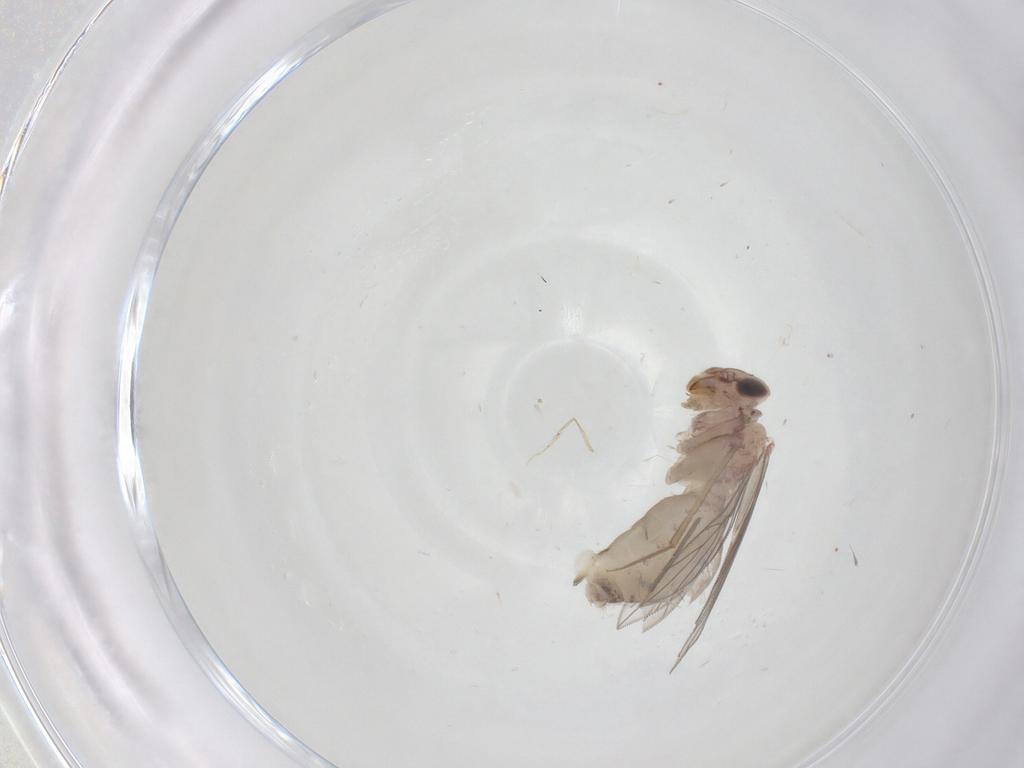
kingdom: Animalia
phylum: Arthropoda
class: Insecta
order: Psocodea
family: Lepidopsocidae
